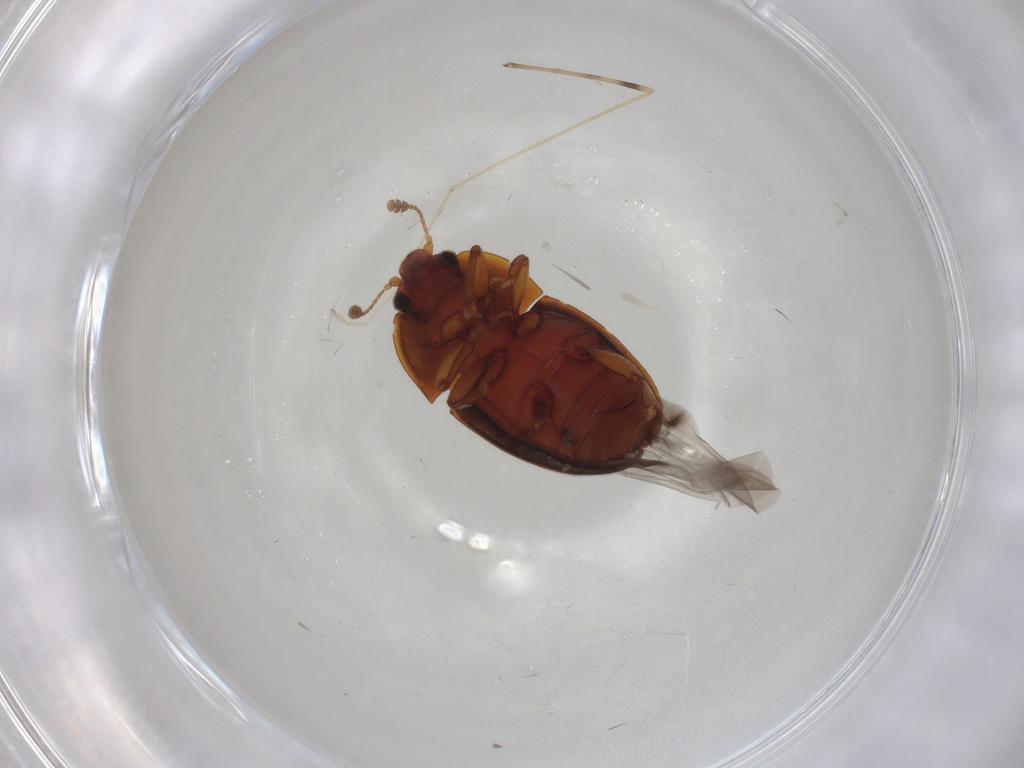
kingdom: Animalia
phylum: Arthropoda
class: Insecta
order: Coleoptera
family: Nitidulidae
